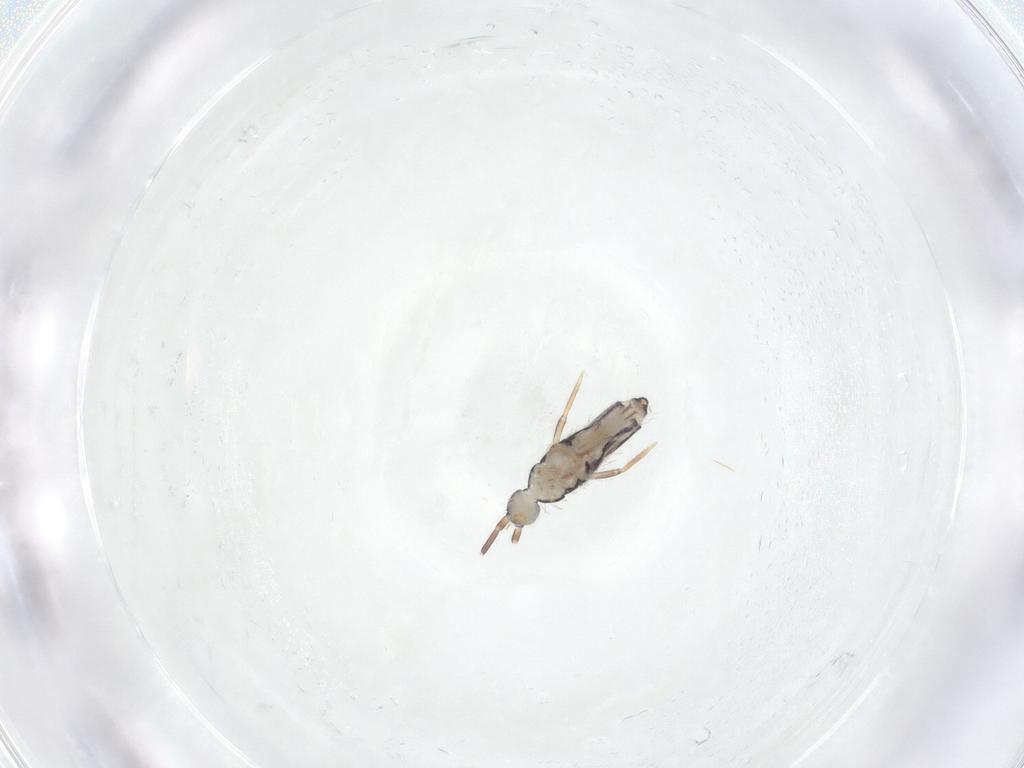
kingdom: Animalia
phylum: Arthropoda
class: Collembola
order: Entomobryomorpha
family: Entomobryidae
